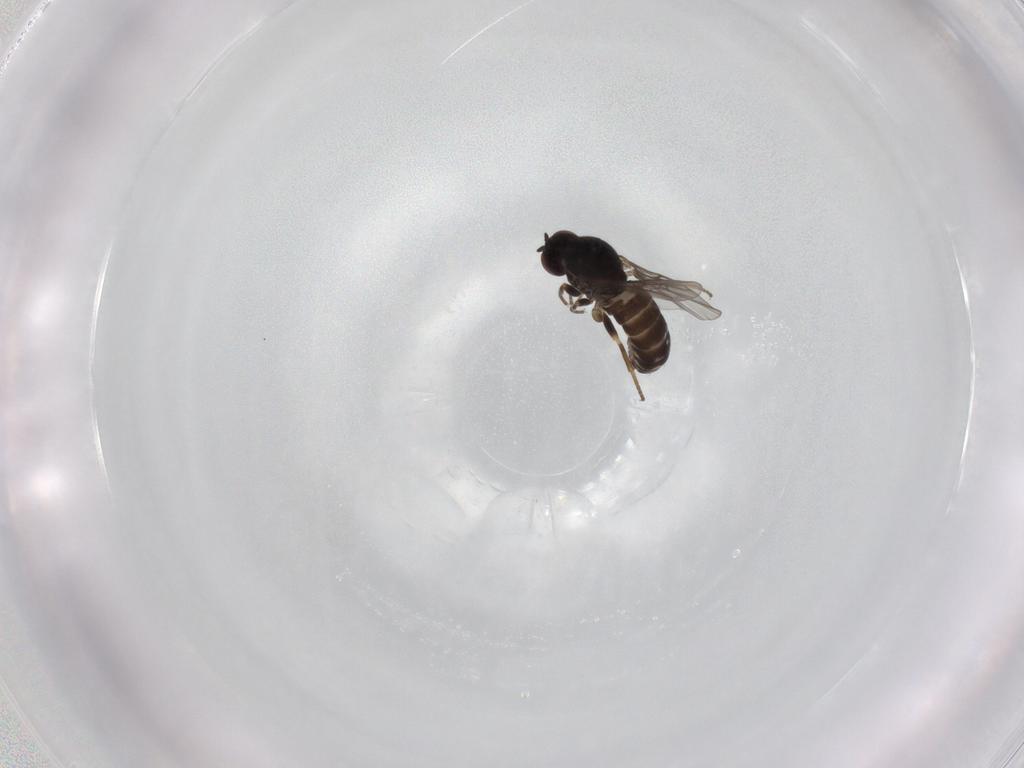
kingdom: Animalia
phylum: Arthropoda
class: Insecta
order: Diptera
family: Bombyliidae
